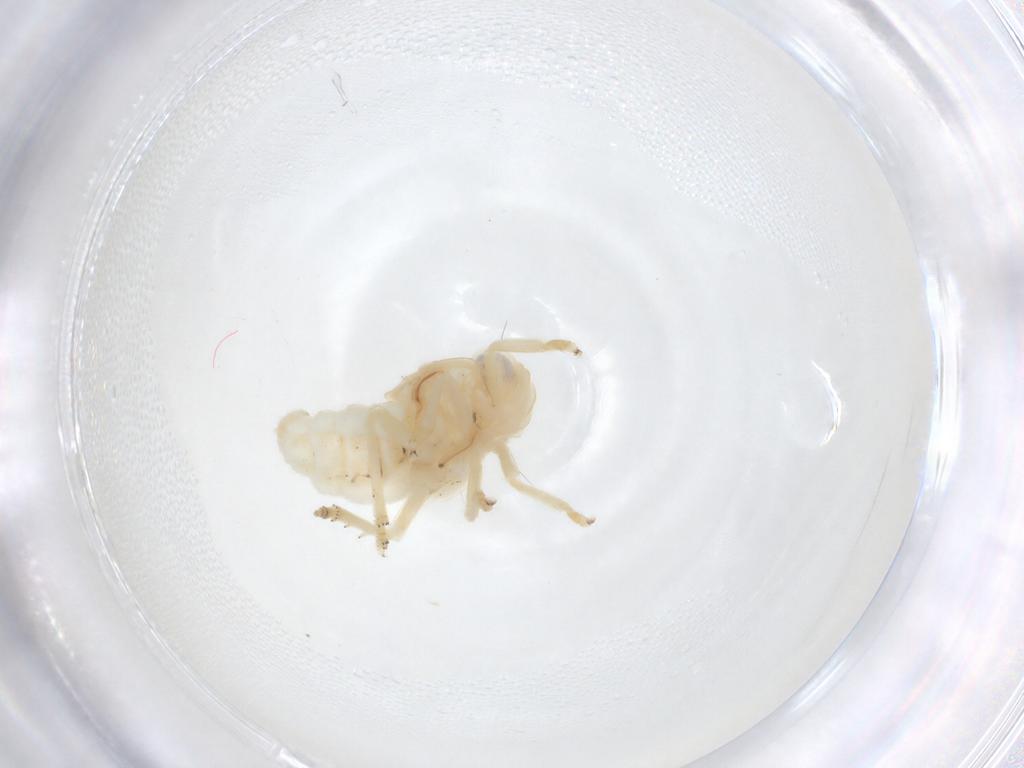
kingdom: Animalia
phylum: Arthropoda
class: Insecta
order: Hemiptera
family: Nogodinidae
